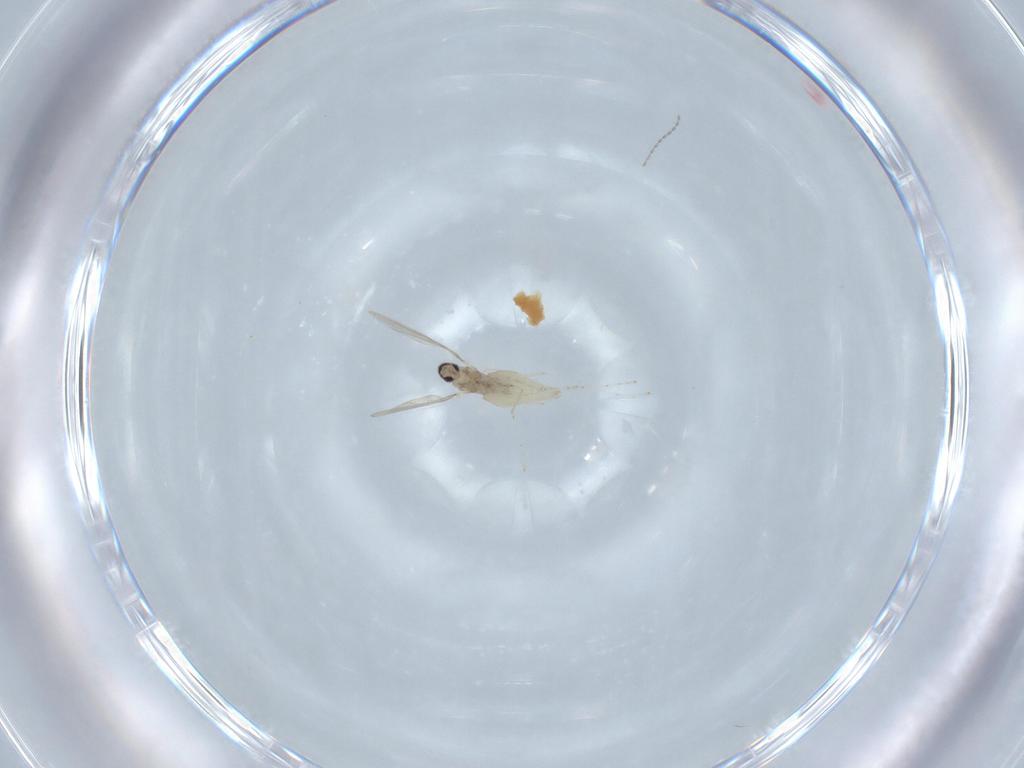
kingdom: Animalia
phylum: Arthropoda
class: Insecta
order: Diptera
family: Cecidomyiidae
